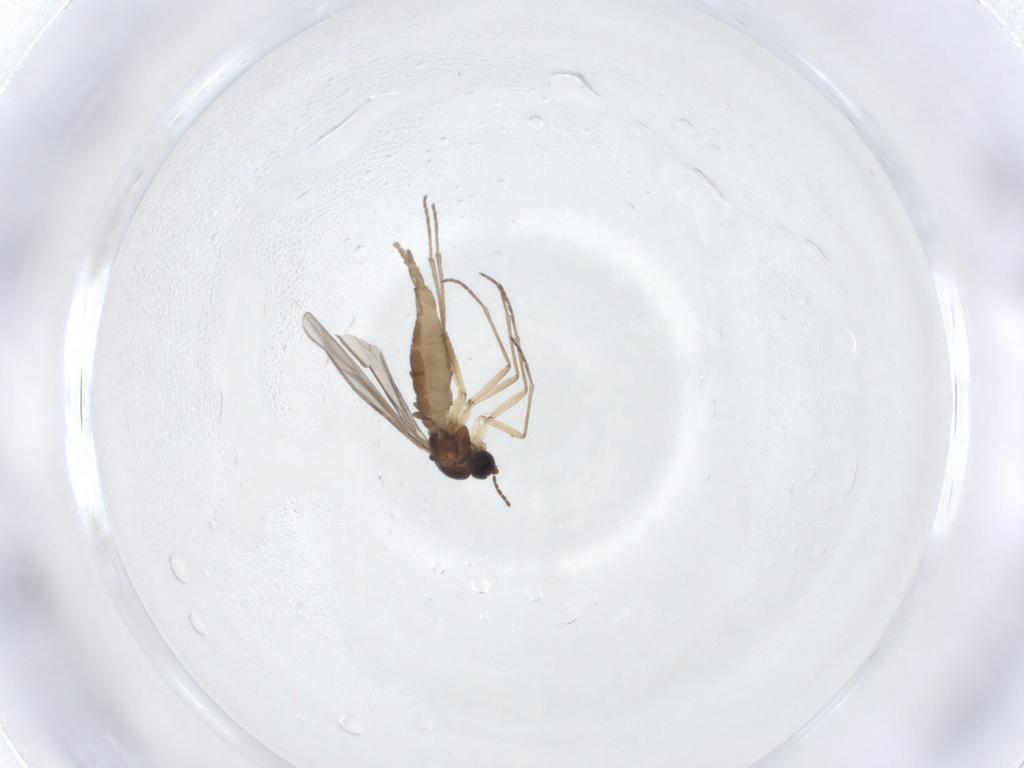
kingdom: Animalia
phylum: Arthropoda
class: Insecta
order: Diptera
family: Sciaridae
